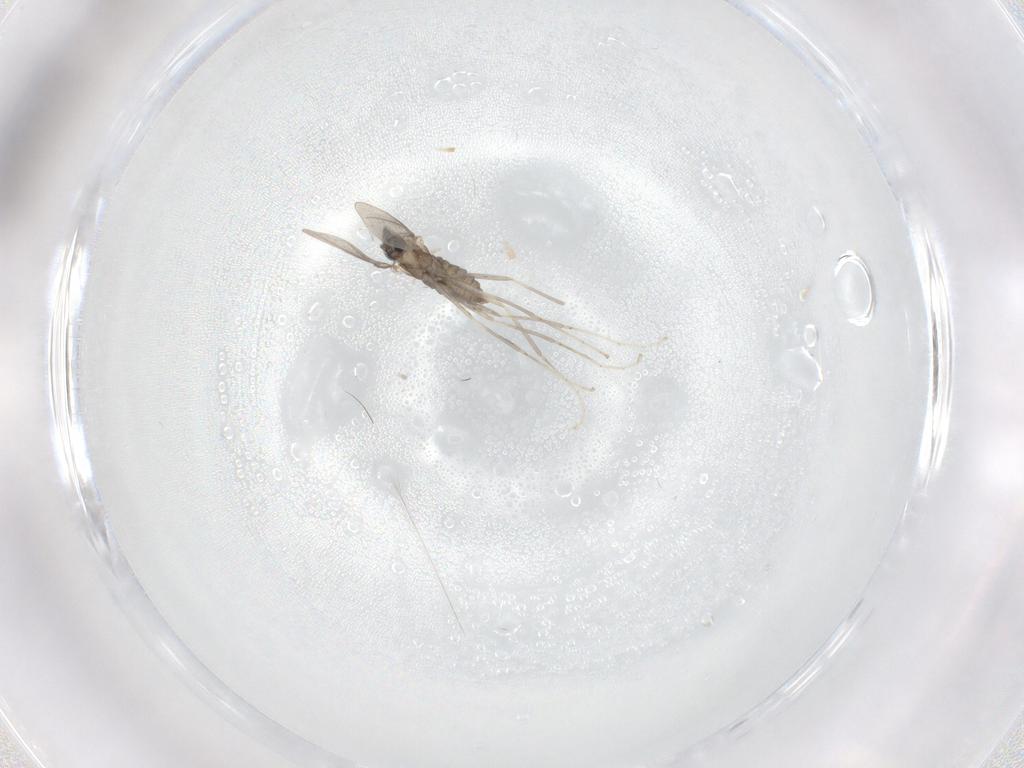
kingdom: Animalia
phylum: Arthropoda
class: Insecta
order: Diptera
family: Cecidomyiidae
